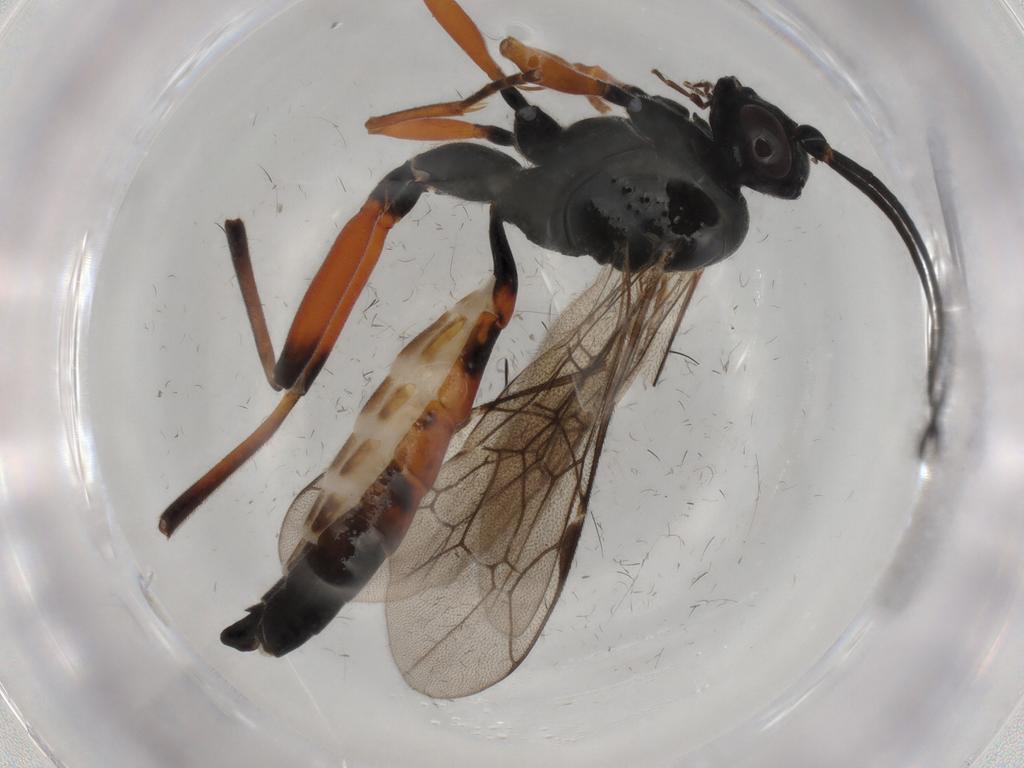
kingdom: Animalia
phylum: Arthropoda
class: Insecta
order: Hymenoptera
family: Ichneumonidae
